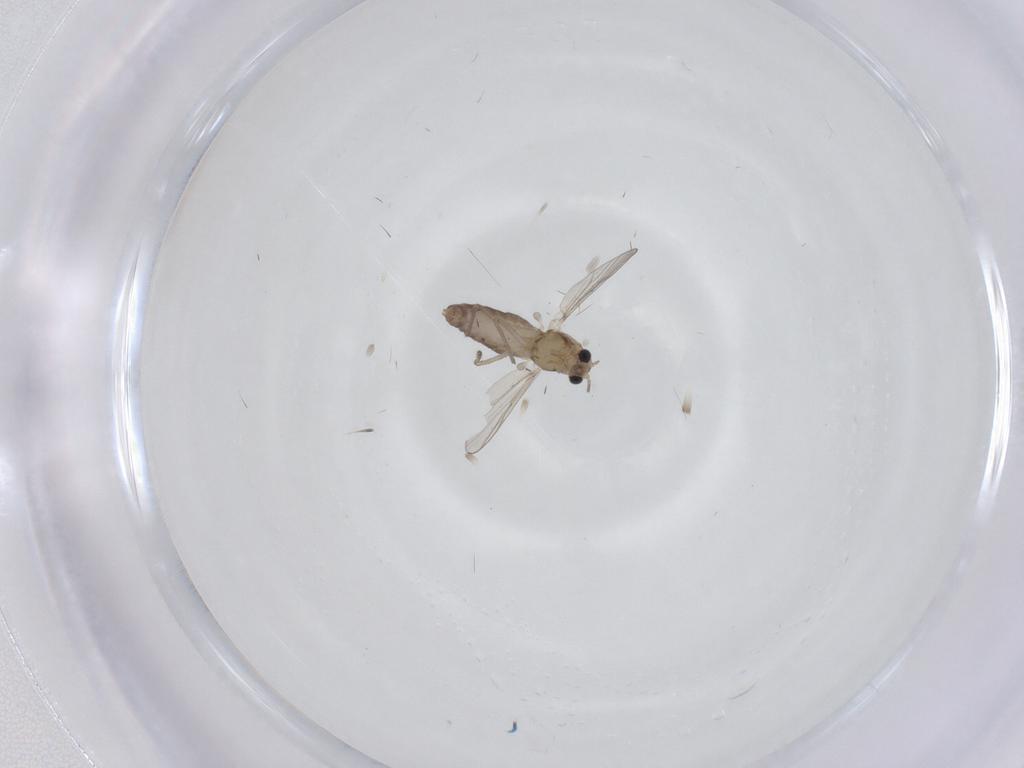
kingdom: Animalia
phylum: Arthropoda
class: Insecta
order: Diptera
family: Chironomidae
